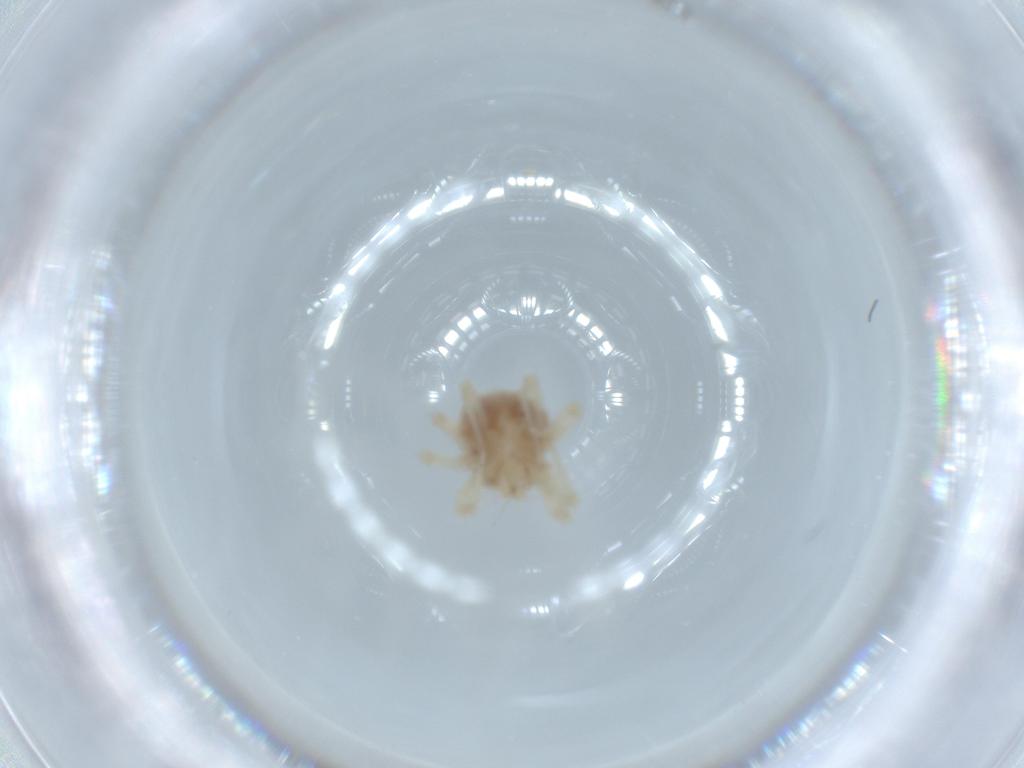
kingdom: Animalia
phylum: Arthropoda
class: Arachnida
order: Trombidiformes
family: Anystidae
